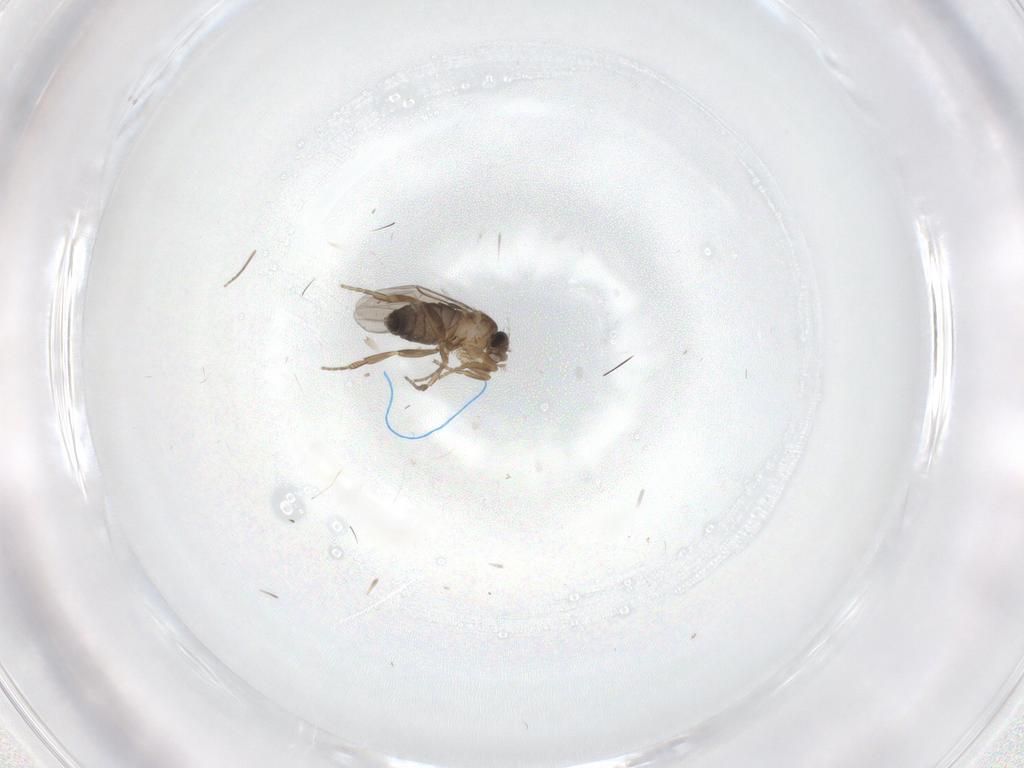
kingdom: Animalia
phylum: Arthropoda
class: Insecta
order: Diptera
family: Phoridae
